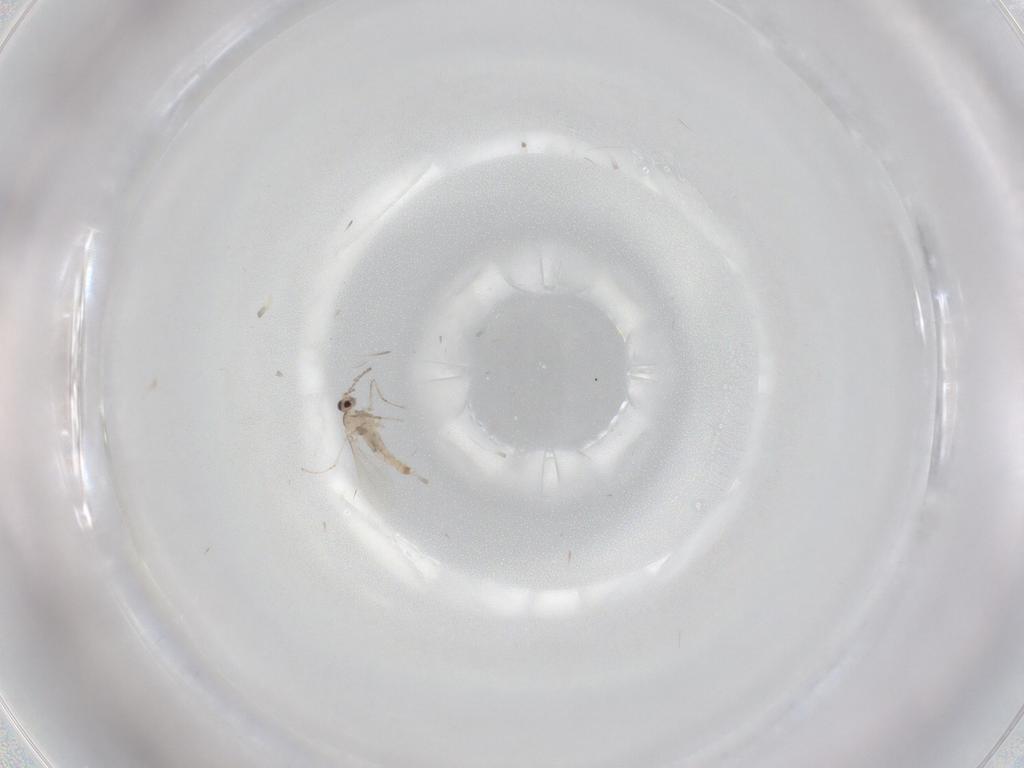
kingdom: Animalia
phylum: Arthropoda
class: Insecta
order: Diptera
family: Cecidomyiidae
